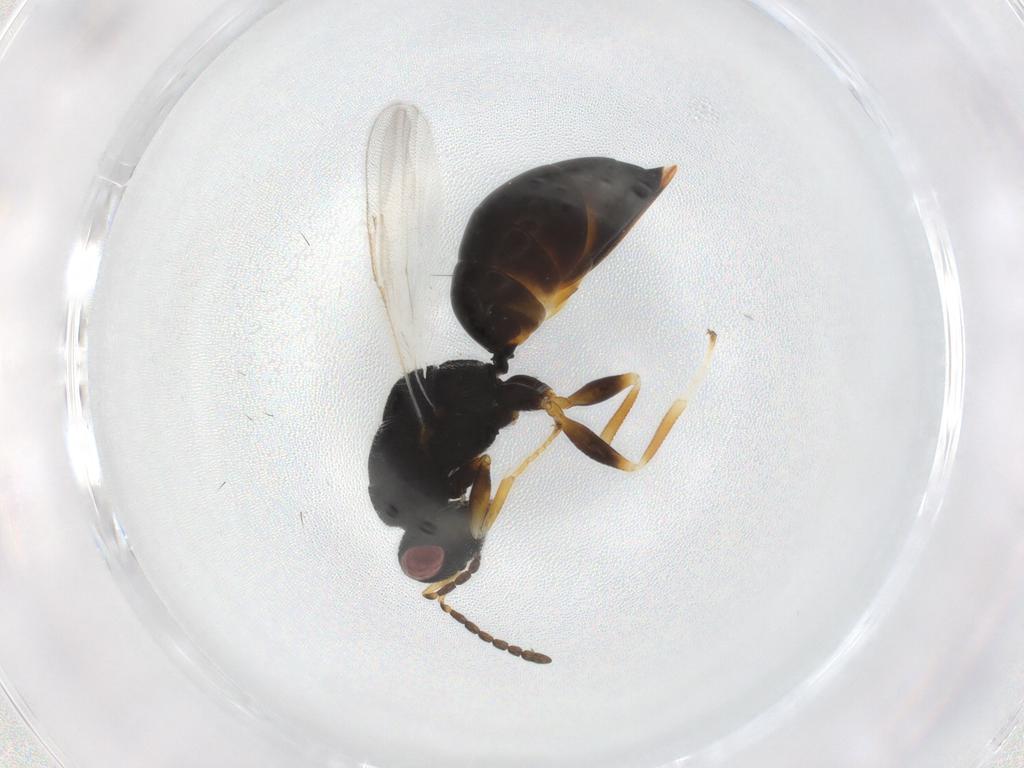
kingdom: Animalia
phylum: Arthropoda
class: Insecta
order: Hymenoptera
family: Eurytomidae
